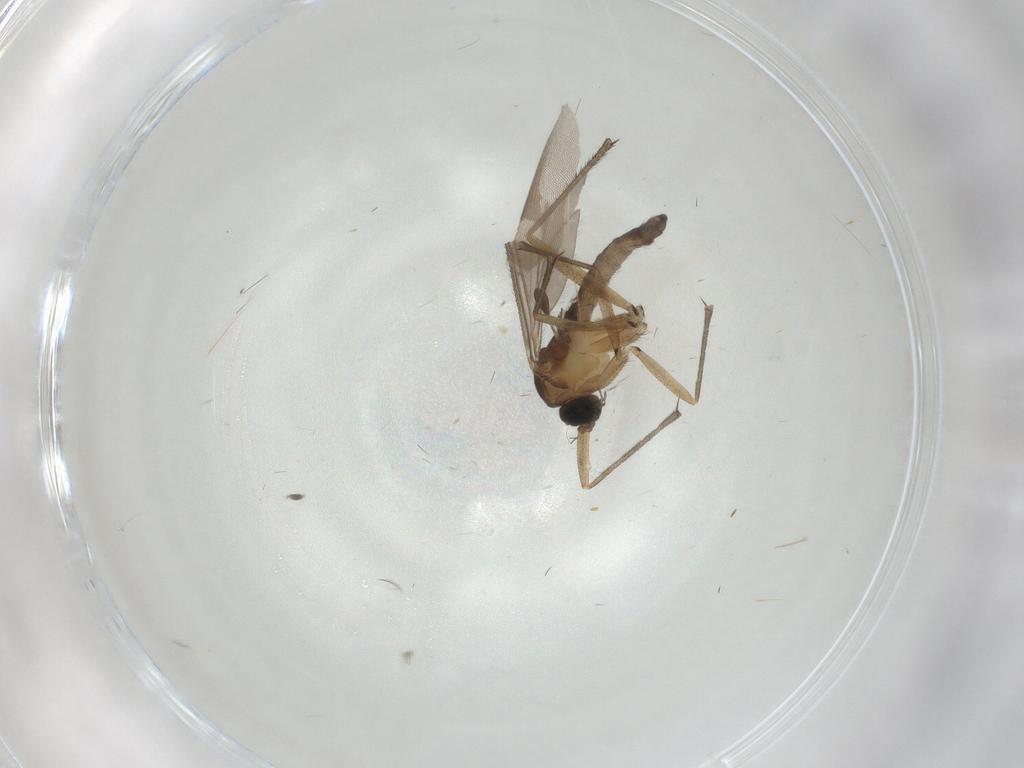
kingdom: Animalia
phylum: Arthropoda
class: Insecta
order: Diptera
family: Sciaridae
